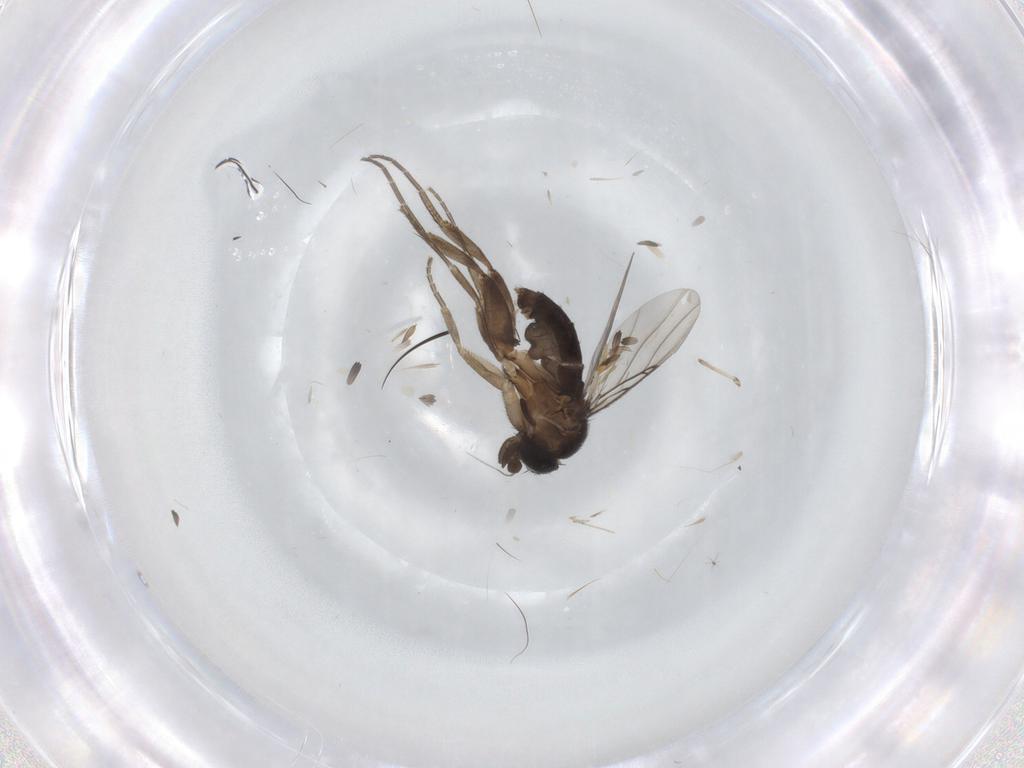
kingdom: Animalia
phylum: Arthropoda
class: Insecta
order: Diptera
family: Phoridae
